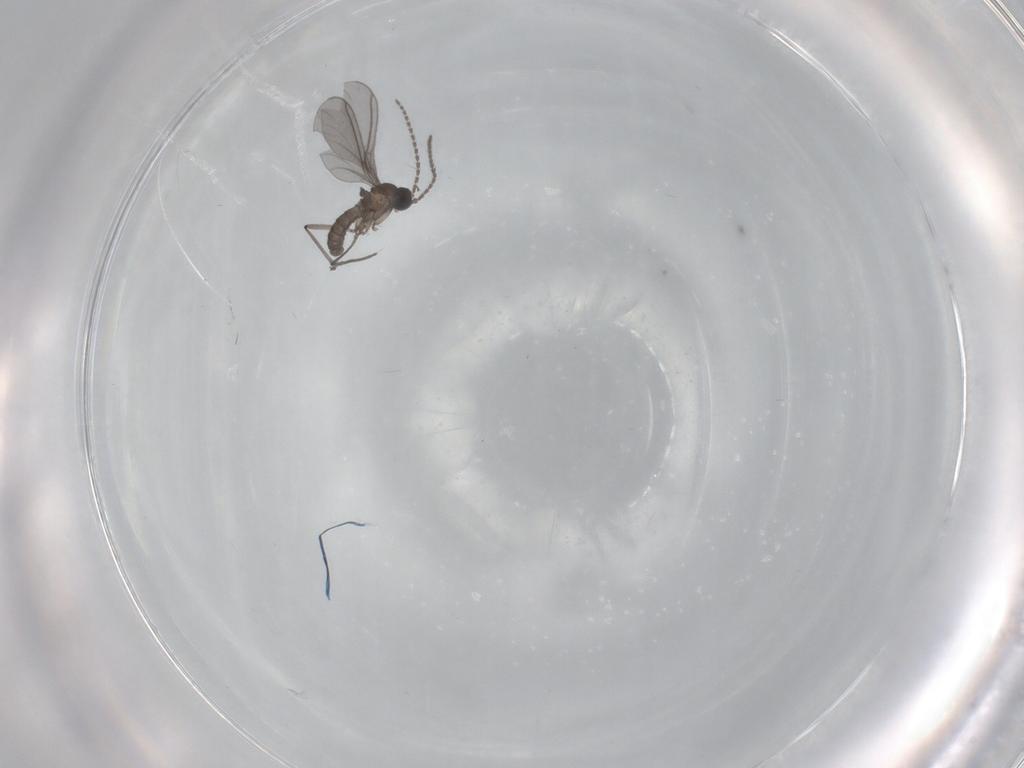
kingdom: Animalia
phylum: Arthropoda
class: Insecta
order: Diptera
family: Sciaridae
